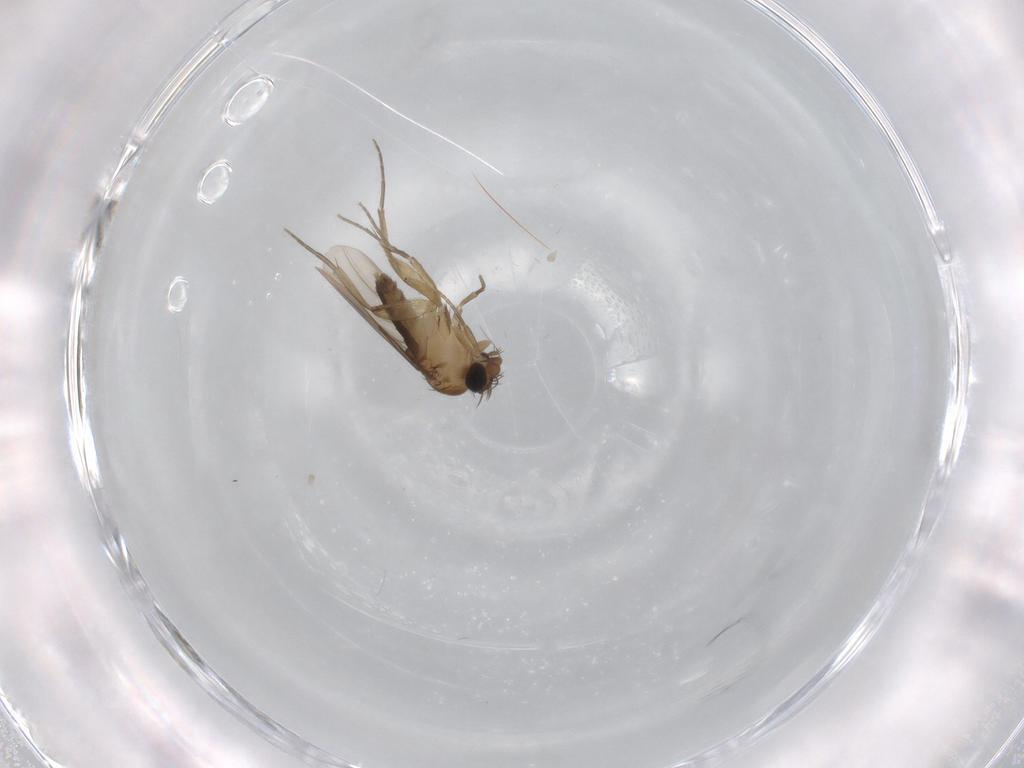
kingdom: Animalia
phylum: Arthropoda
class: Insecta
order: Diptera
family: Phoridae
